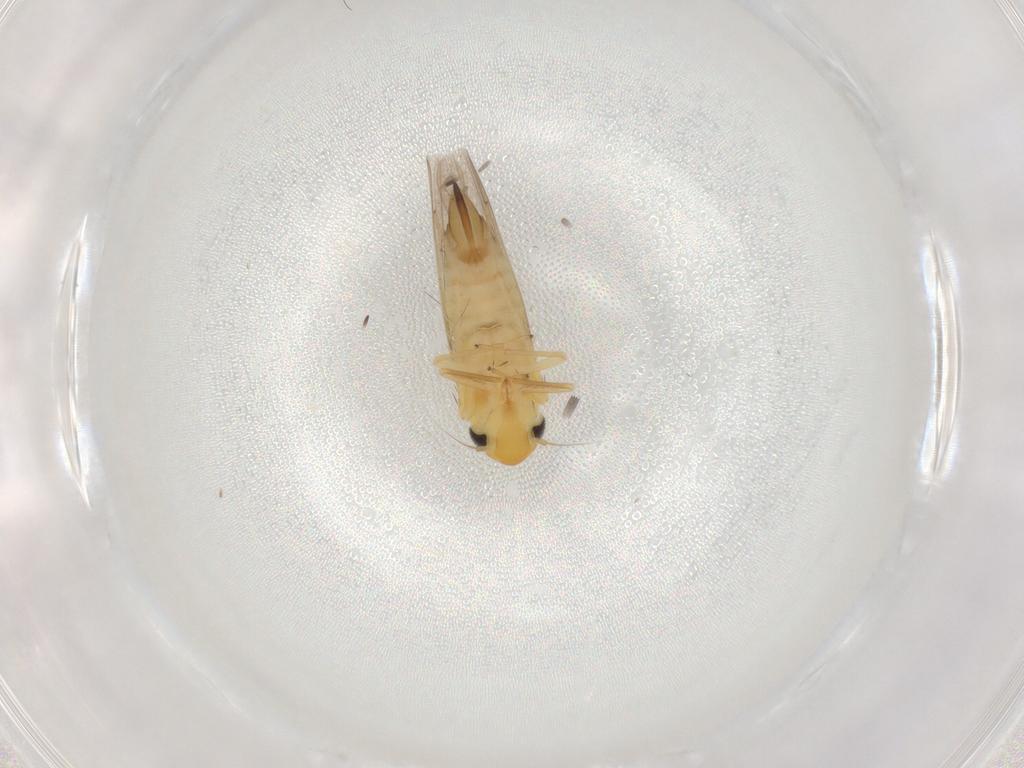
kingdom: Animalia
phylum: Arthropoda
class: Insecta
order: Hemiptera
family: Cicadellidae
